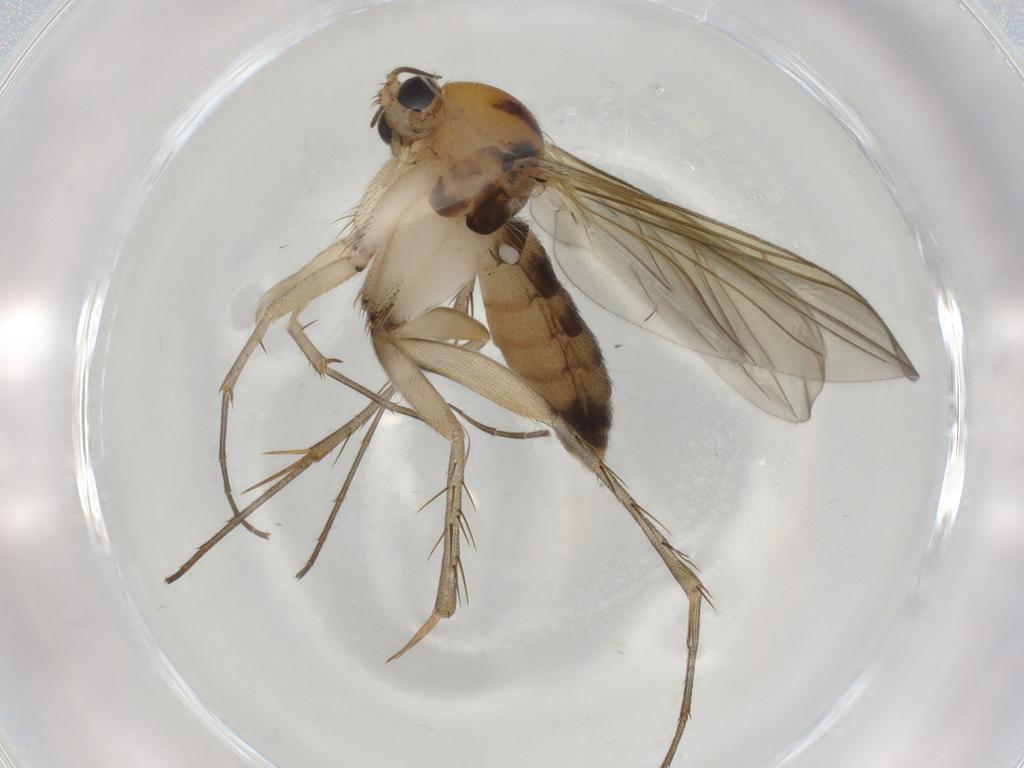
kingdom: Animalia
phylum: Arthropoda
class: Insecta
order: Diptera
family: Mycetophilidae
